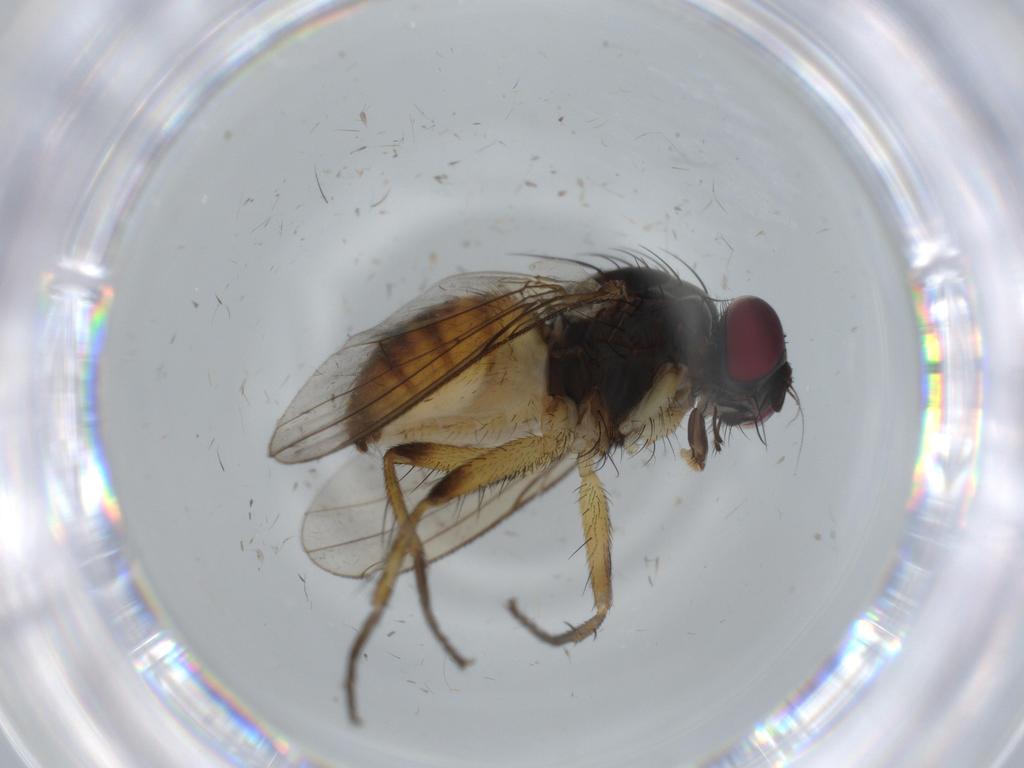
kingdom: Animalia
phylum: Arthropoda
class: Insecta
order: Diptera
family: Muscidae
